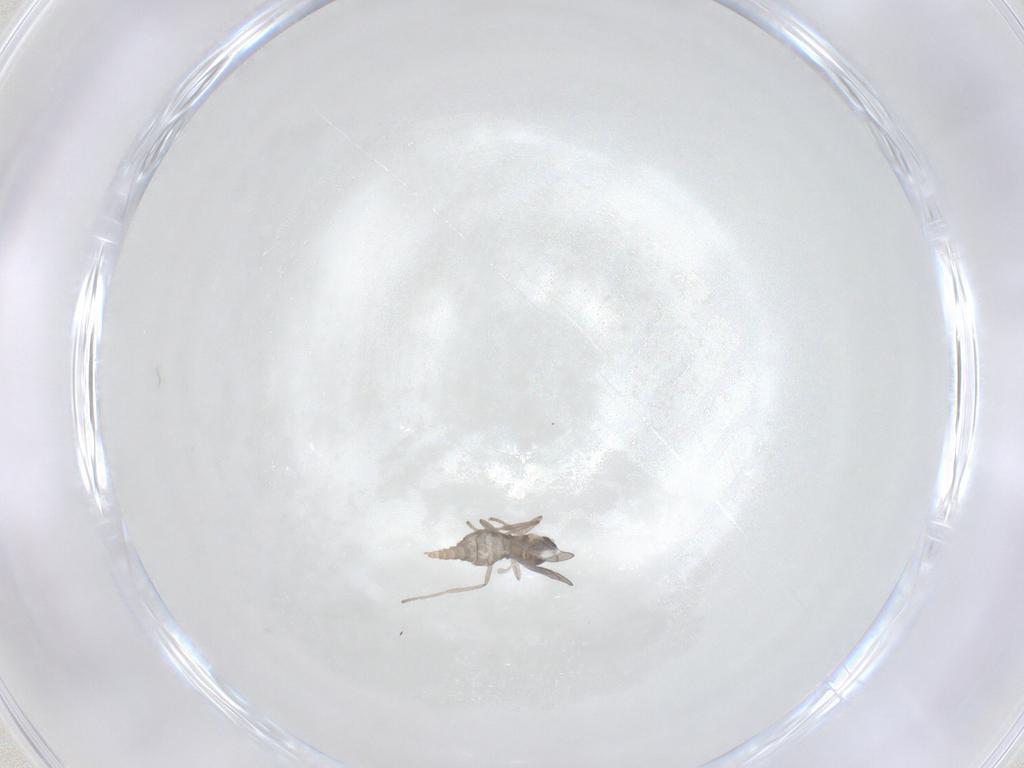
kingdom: Animalia
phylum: Arthropoda
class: Insecta
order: Diptera
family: Cecidomyiidae
